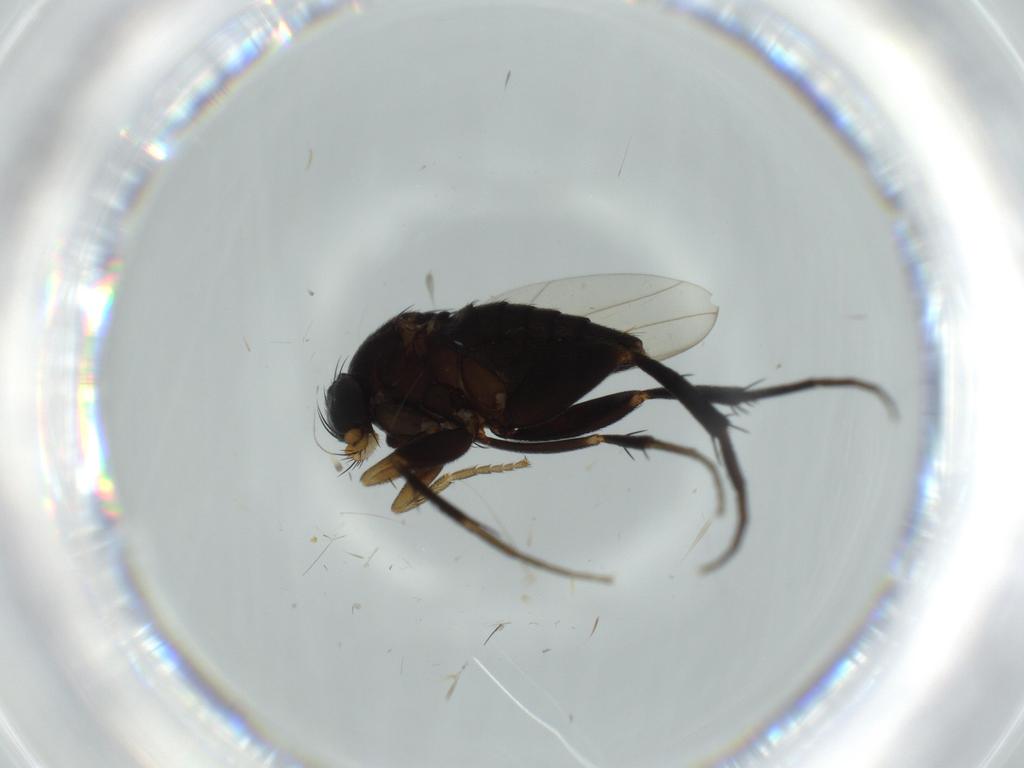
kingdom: Animalia
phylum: Arthropoda
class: Insecta
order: Diptera
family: Phoridae
